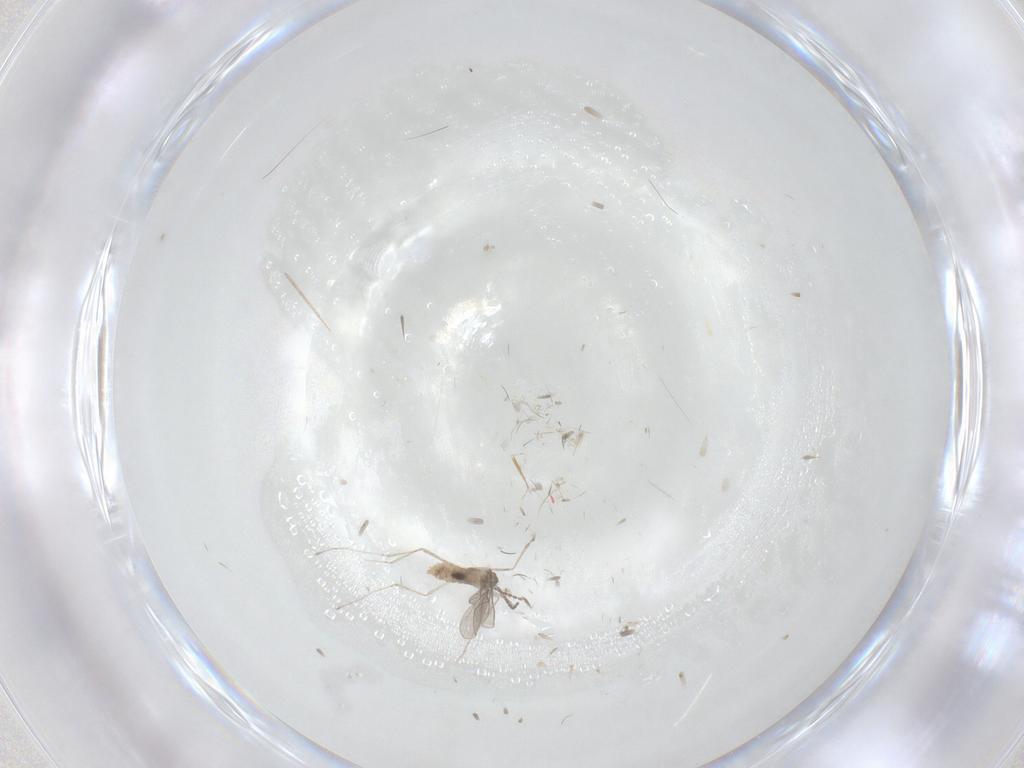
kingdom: Animalia
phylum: Arthropoda
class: Insecta
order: Diptera
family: Cecidomyiidae
